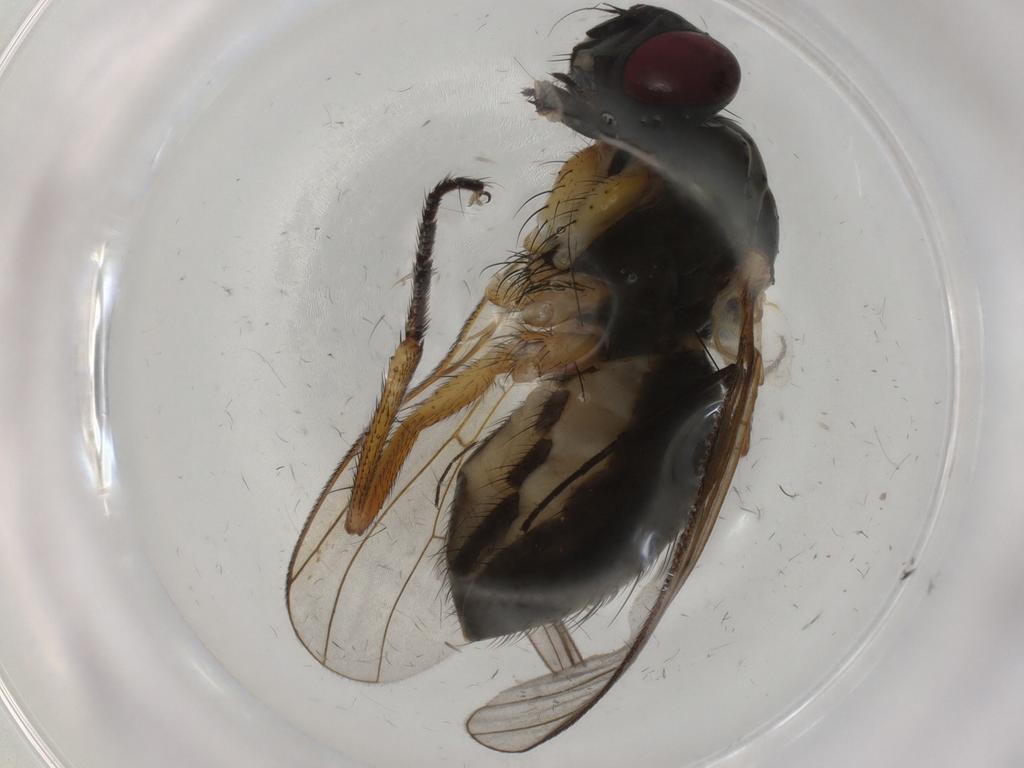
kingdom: Animalia
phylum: Arthropoda
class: Insecta
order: Diptera
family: Muscidae
